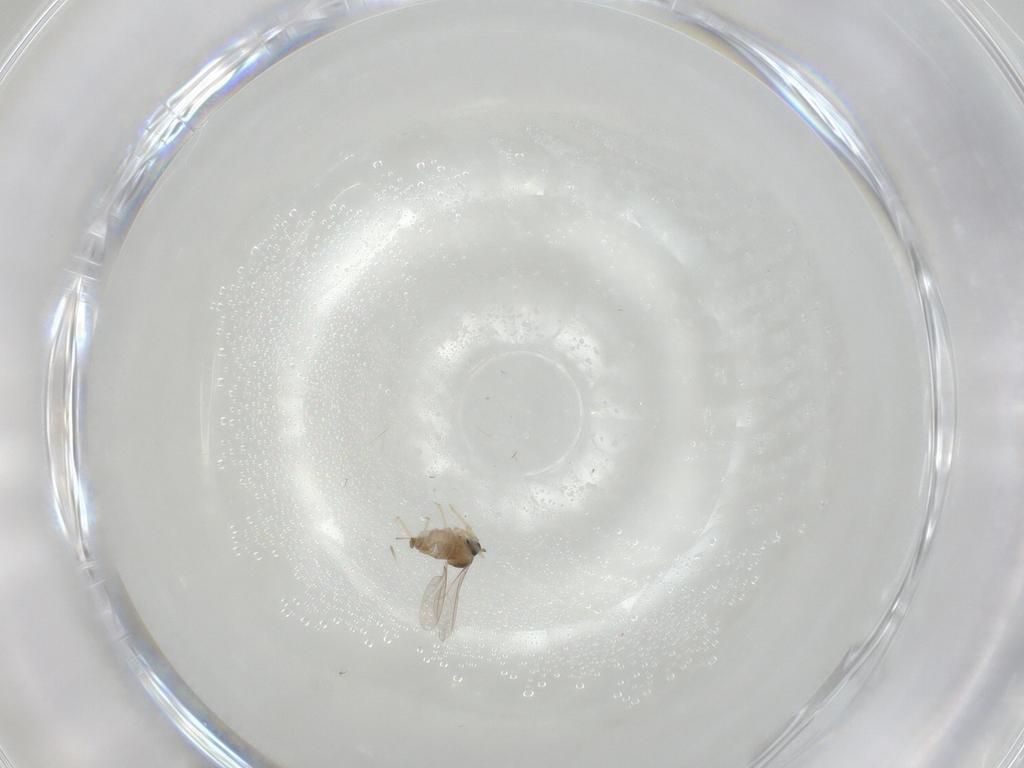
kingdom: Animalia
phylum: Arthropoda
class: Insecta
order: Diptera
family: Cecidomyiidae
